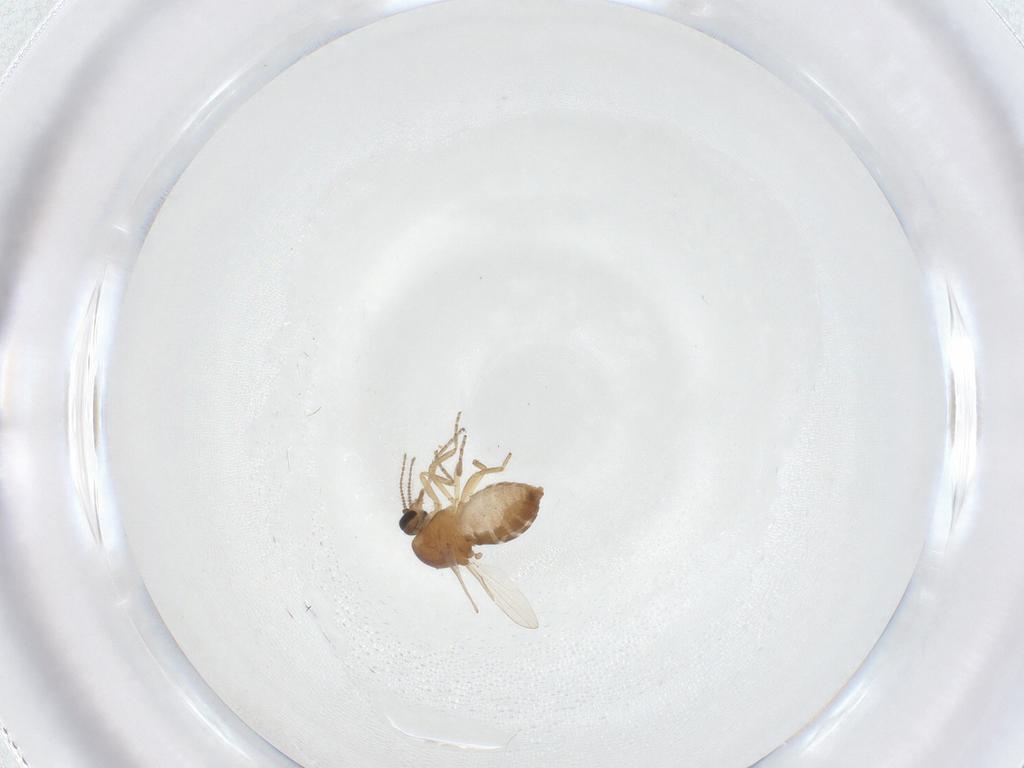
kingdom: Animalia
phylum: Arthropoda
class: Insecta
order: Diptera
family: Ceratopogonidae
